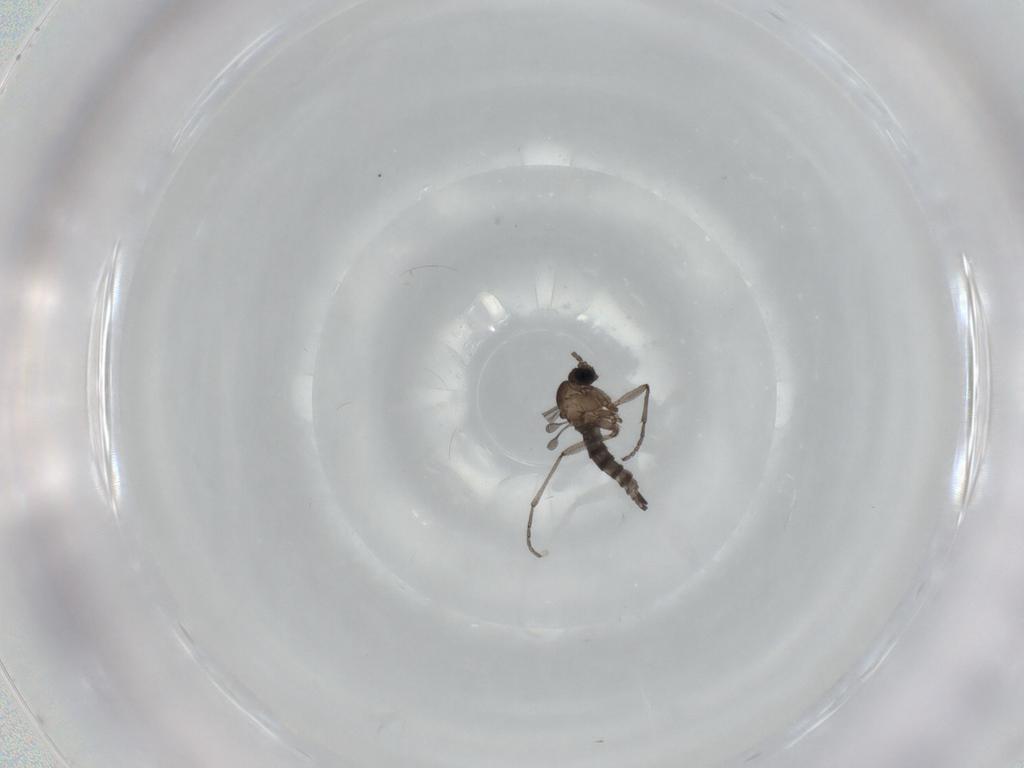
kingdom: Animalia
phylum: Arthropoda
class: Insecta
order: Diptera
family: Sciaridae
